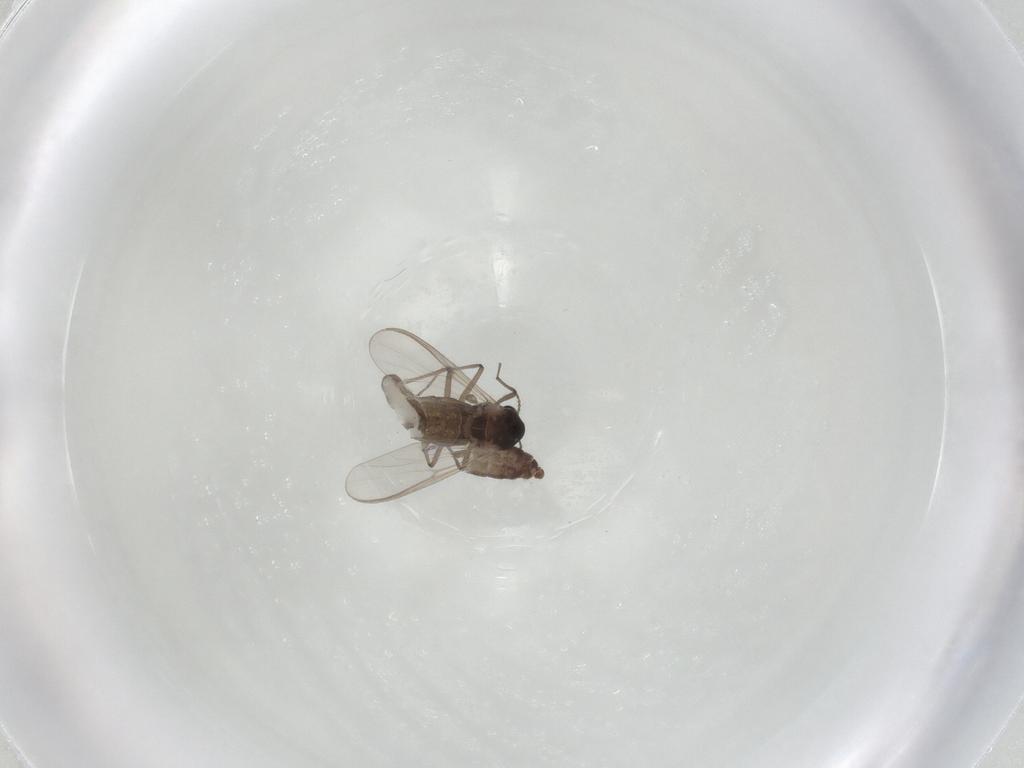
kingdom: Animalia
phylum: Arthropoda
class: Insecta
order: Diptera
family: Chironomidae
